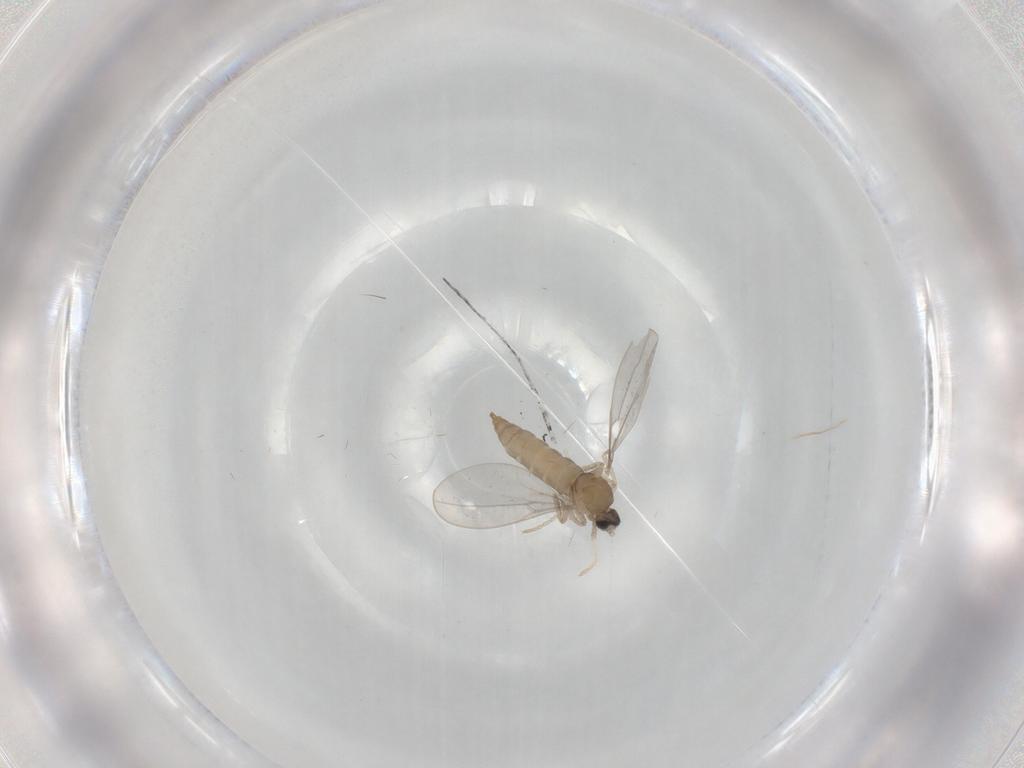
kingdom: Animalia
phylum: Arthropoda
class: Insecta
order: Diptera
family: Cecidomyiidae
